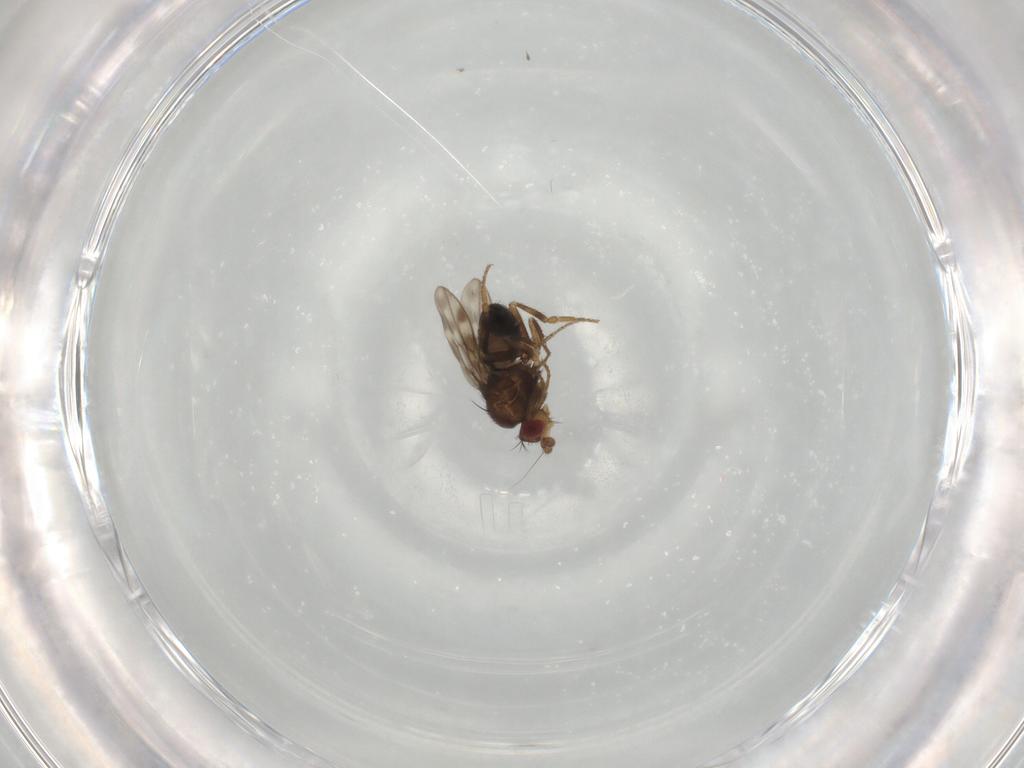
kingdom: Animalia
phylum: Arthropoda
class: Insecta
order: Diptera
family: Sphaeroceridae
